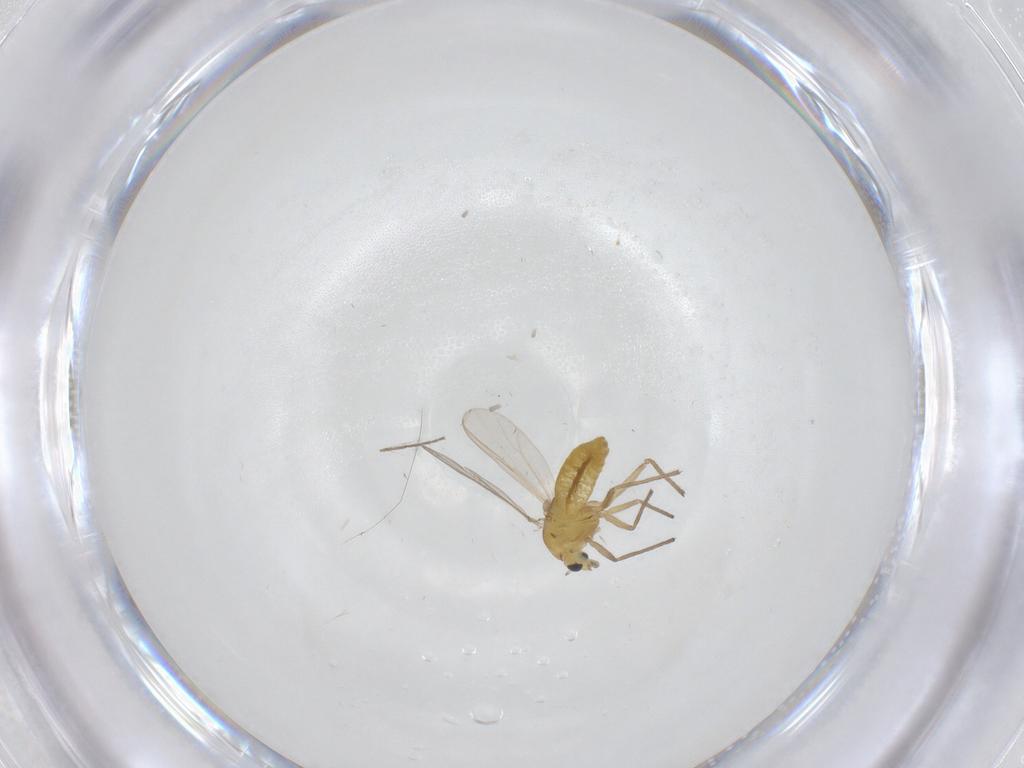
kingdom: Animalia
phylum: Arthropoda
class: Insecta
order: Diptera
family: Chironomidae
